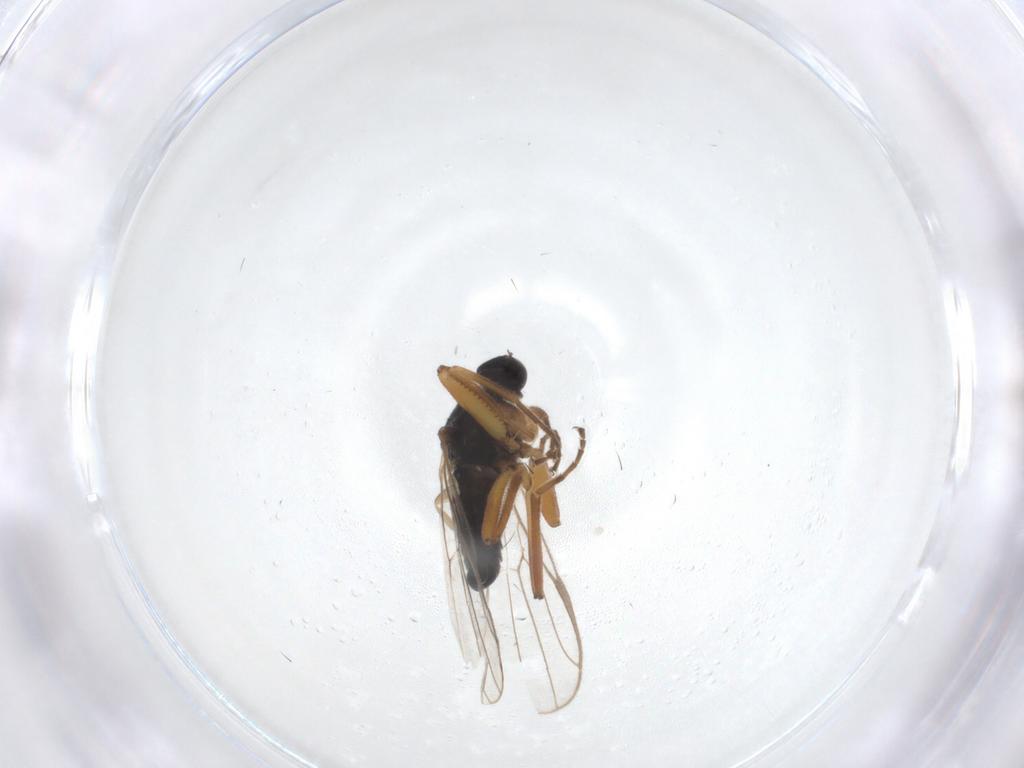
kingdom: Animalia
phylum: Arthropoda
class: Insecta
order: Diptera
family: Hybotidae
